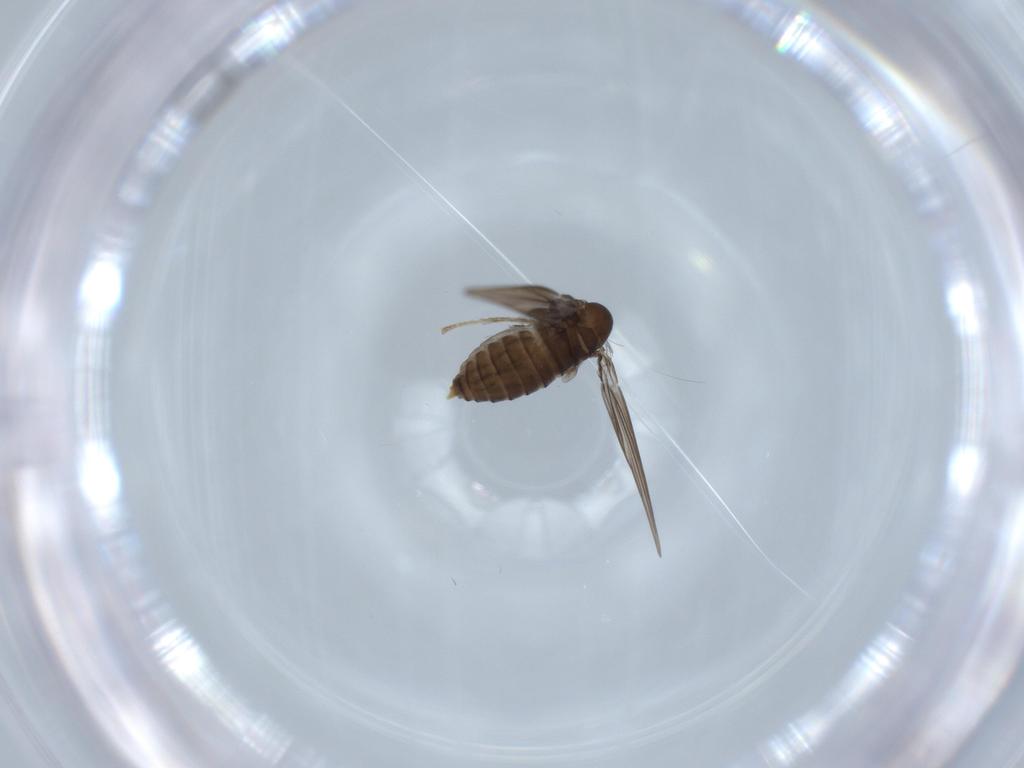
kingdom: Animalia
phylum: Arthropoda
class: Insecta
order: Diptera
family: Psychodidae
